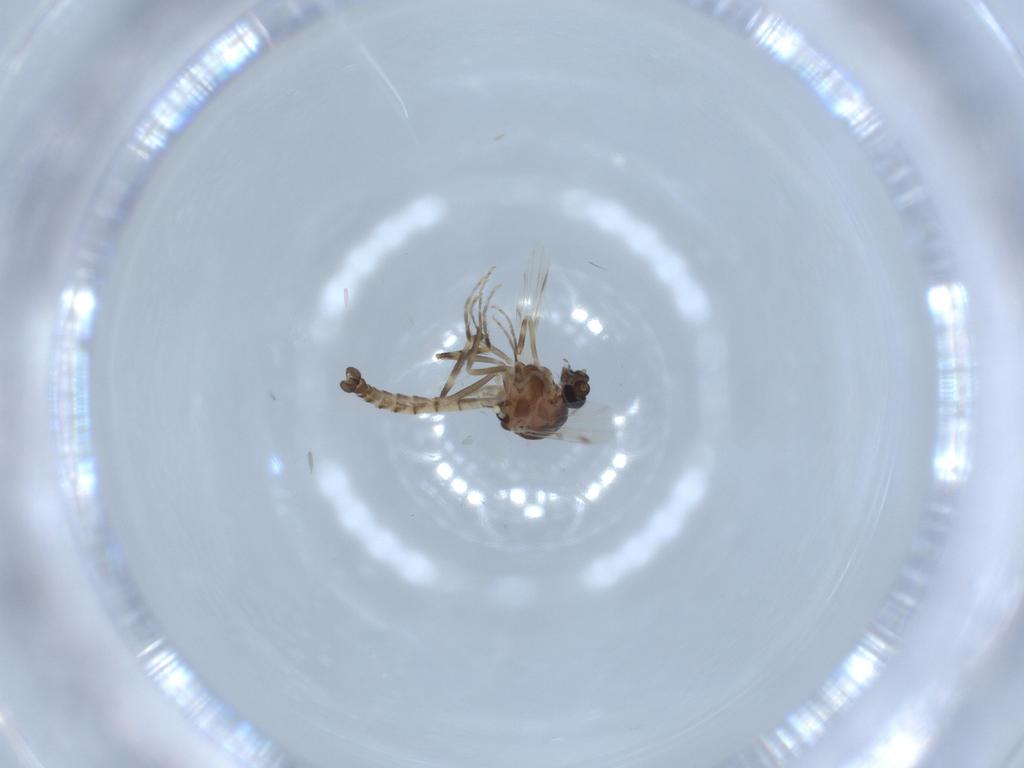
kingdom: Animalia
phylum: Arthropoda
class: Insecta
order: Diptera
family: Ceratopogonidae
